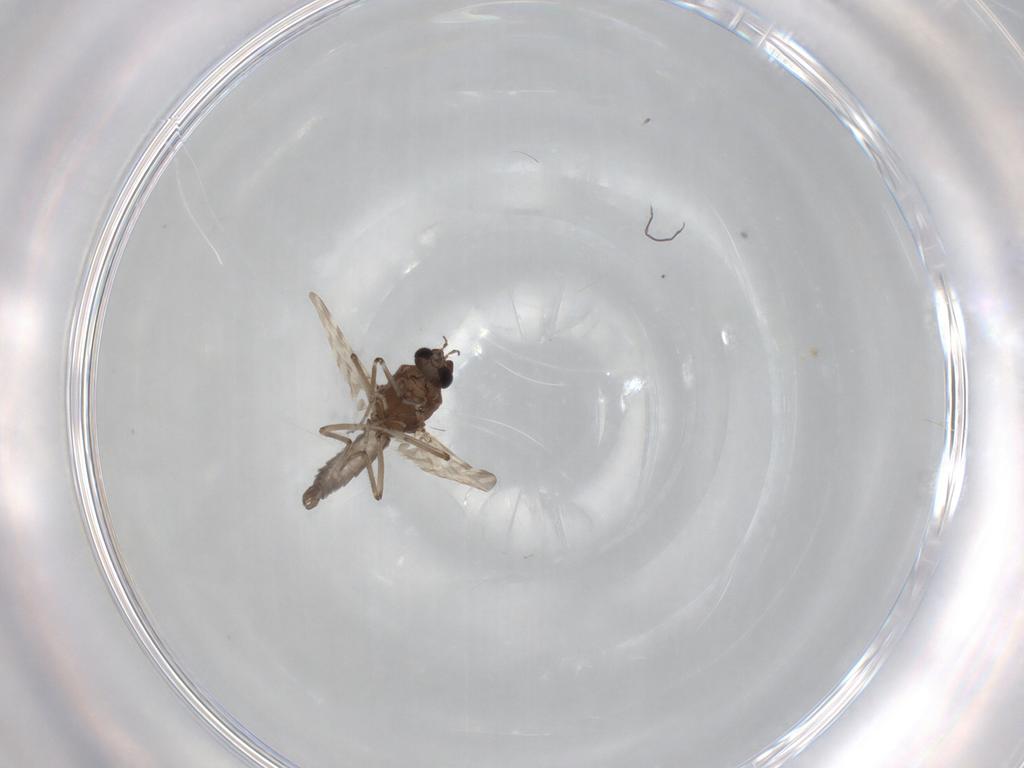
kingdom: Animalia
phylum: Arthropoda
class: Insecta
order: Diptera
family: Ceratopogonidae
